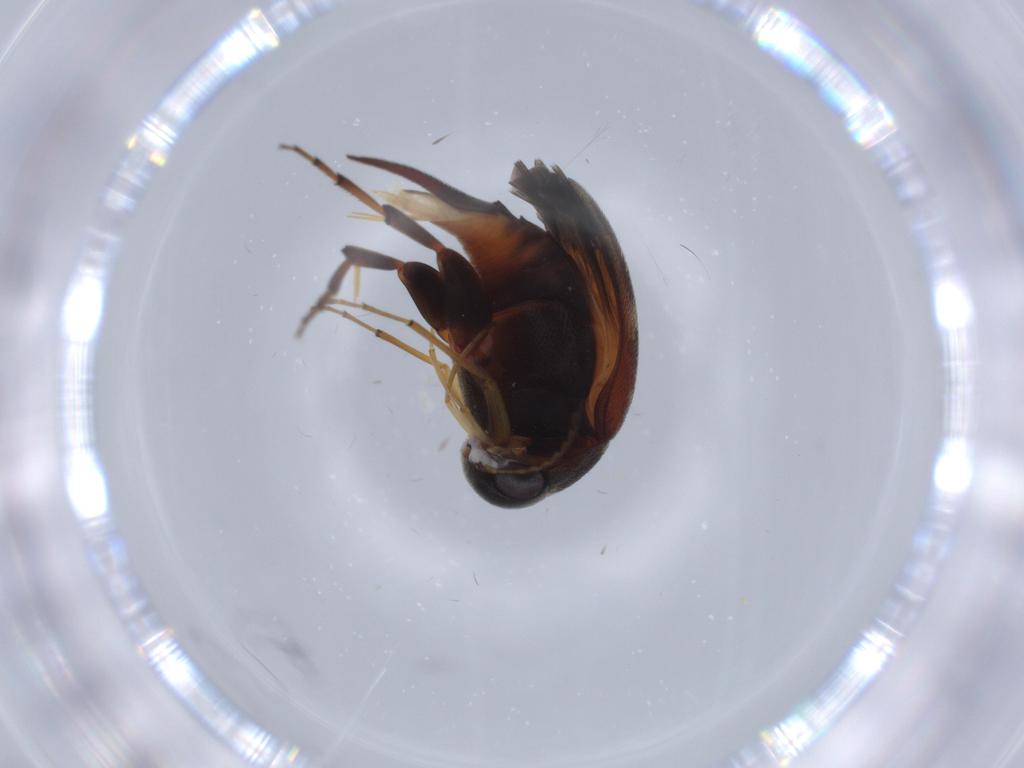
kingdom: Animalia
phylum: Arthropoda
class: Insecta
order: Coleoptera
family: Mordellidae
